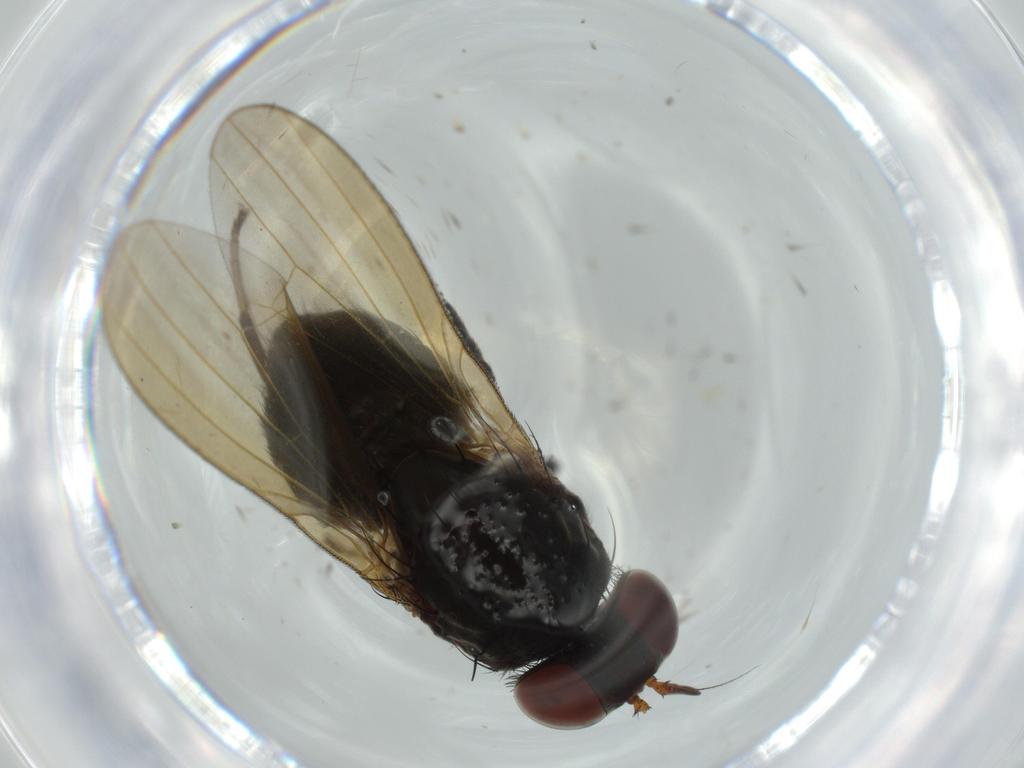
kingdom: Animalia
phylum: Arthropoda
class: Insecta
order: Diptera
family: Lauxaniidae
